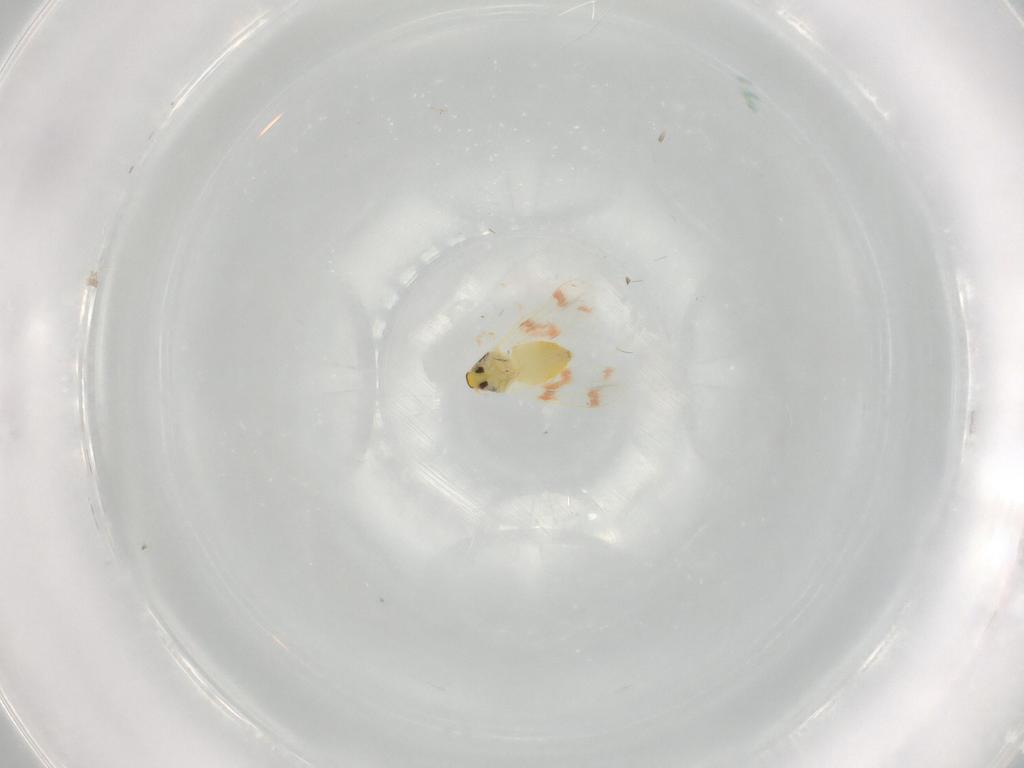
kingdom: Animalia
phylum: Arthropoda
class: Insecta
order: Hemiptera
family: Aleyrodidae
